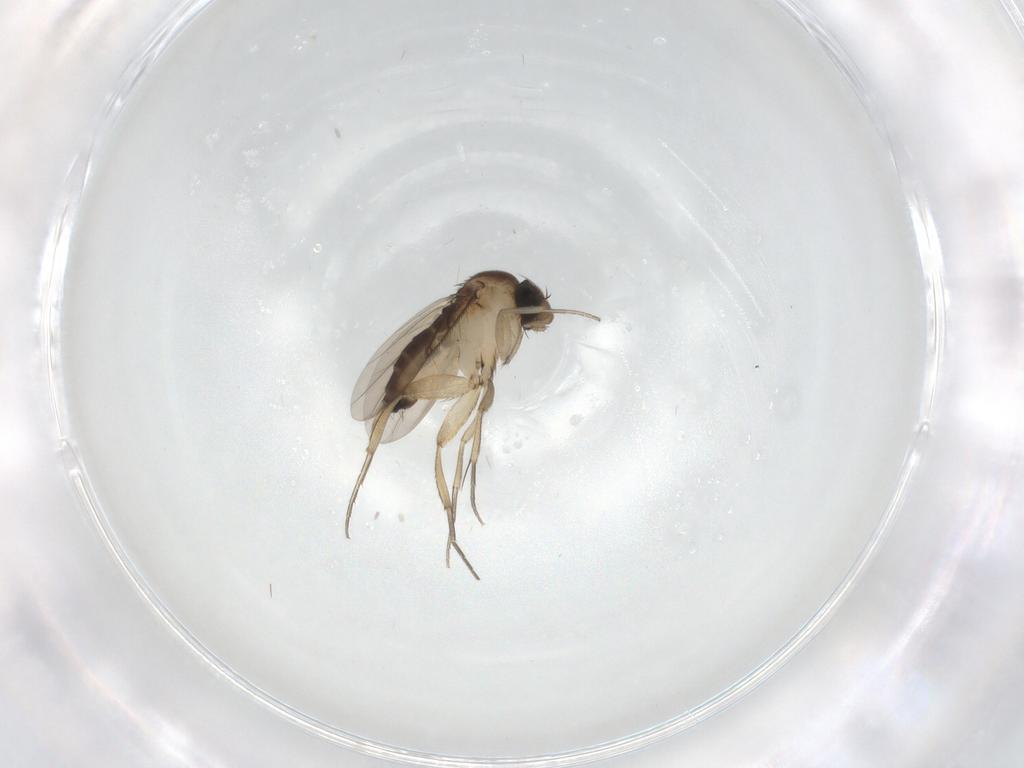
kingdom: Animalia
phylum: Arthropoda
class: Insecta
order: Diptera
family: Phoridae
